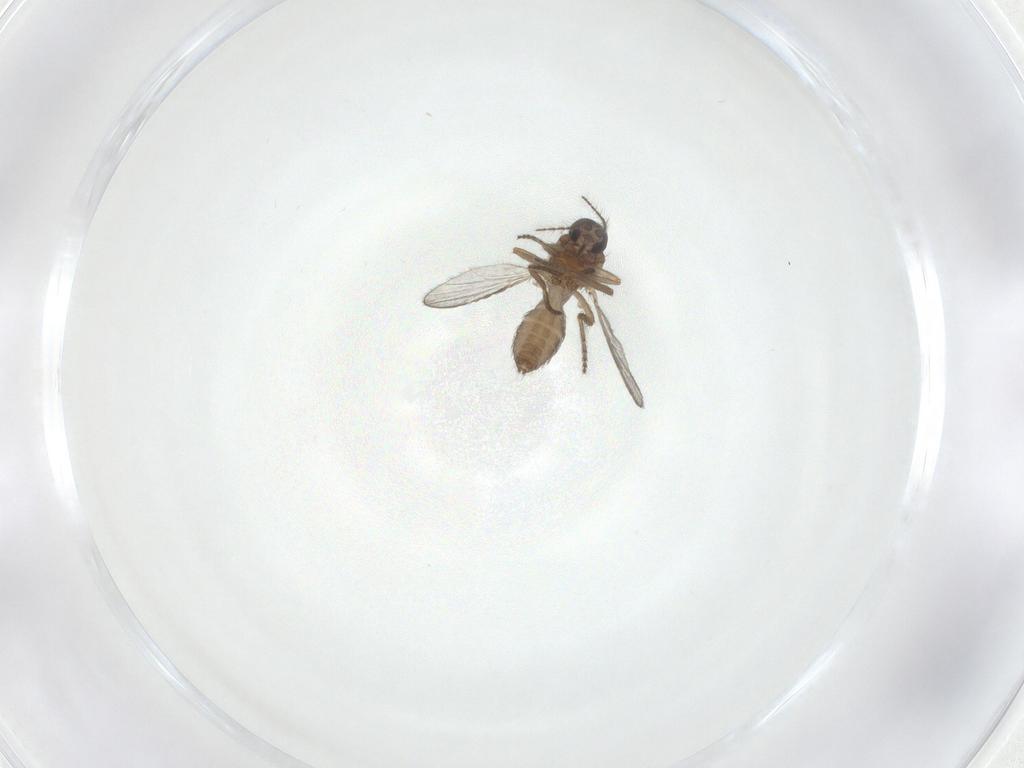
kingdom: Animalia
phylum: Arthropoda
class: Insecta
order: Diptera
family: Ceratopogonidae
